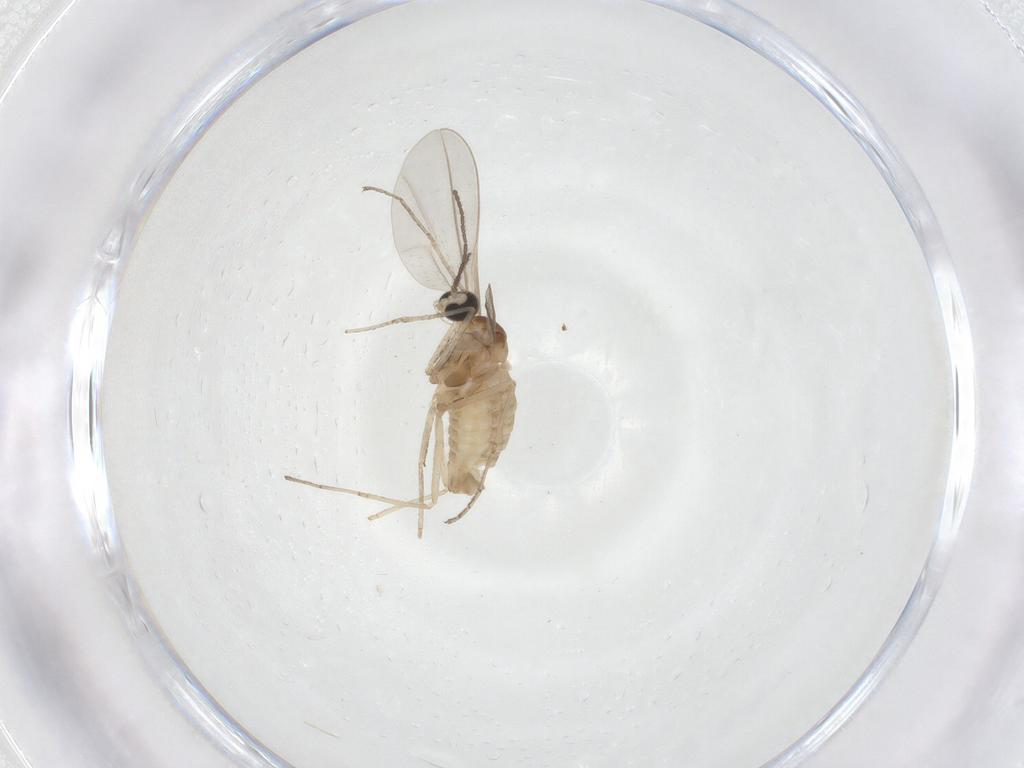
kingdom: Animalia
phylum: Arthropoda
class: Insecta
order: Diptera
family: Cecidomyiidae
